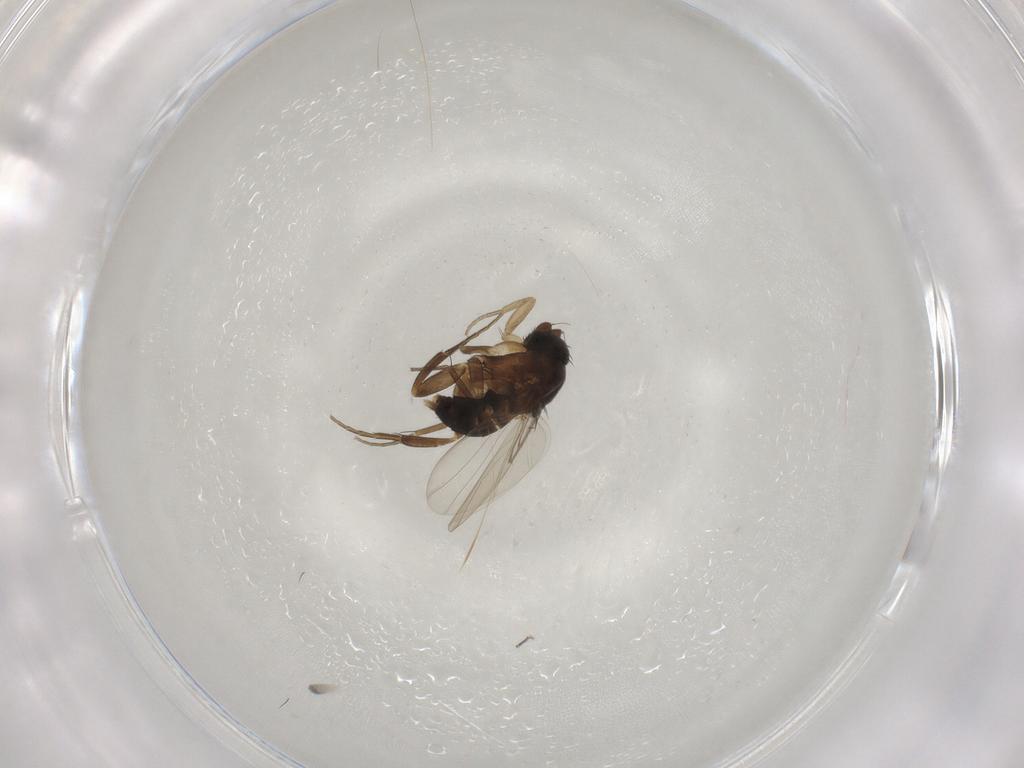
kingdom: Animalia
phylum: Arthropoda
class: Insecta
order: Diptera
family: Phoridae
